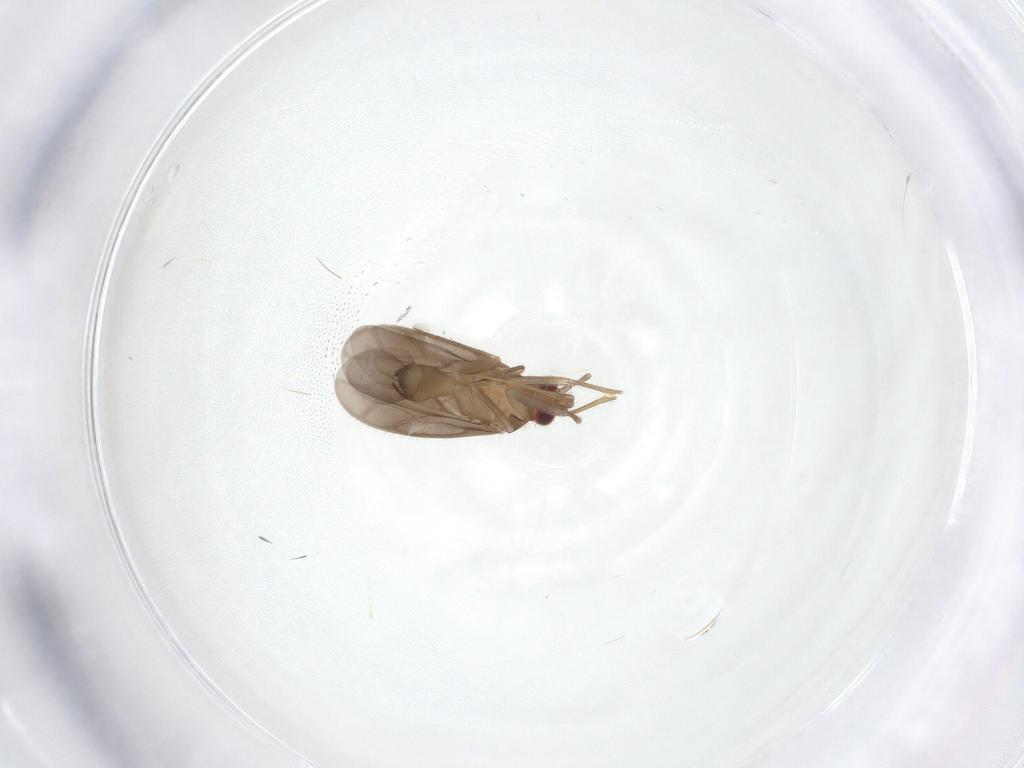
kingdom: Animalia
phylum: Arthropoda
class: Insecta
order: Hemiptera
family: Ceratocombidae
